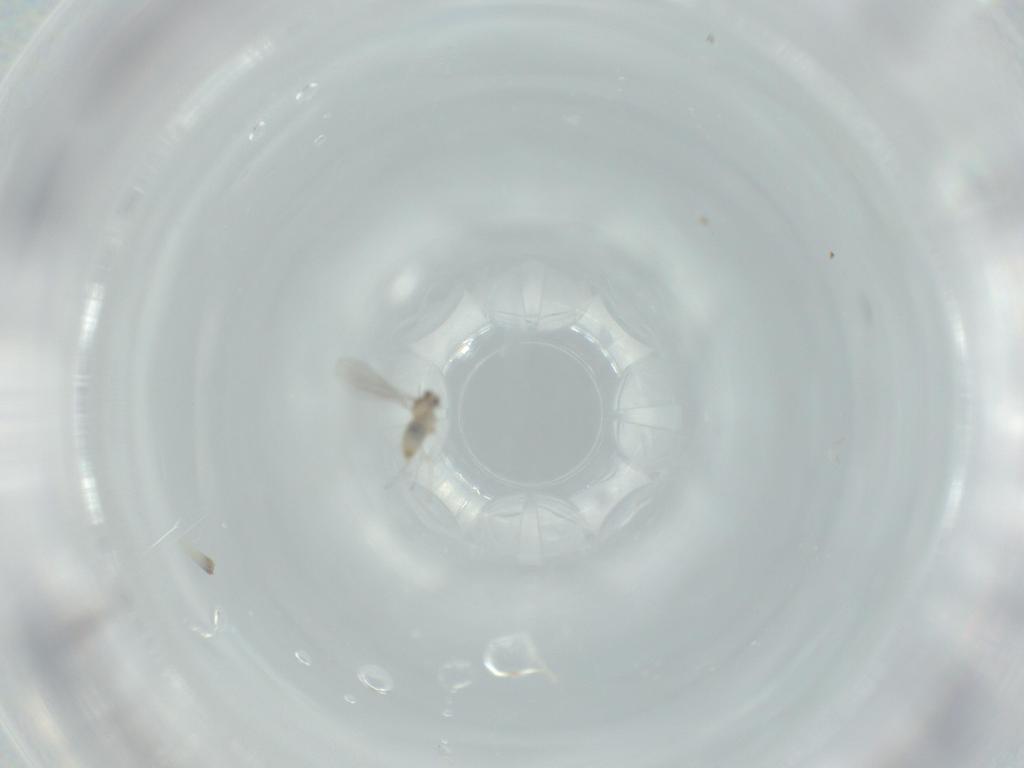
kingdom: Animalia
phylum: Arthropoda
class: Insecta
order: Diptera
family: Cecidomyiidae
